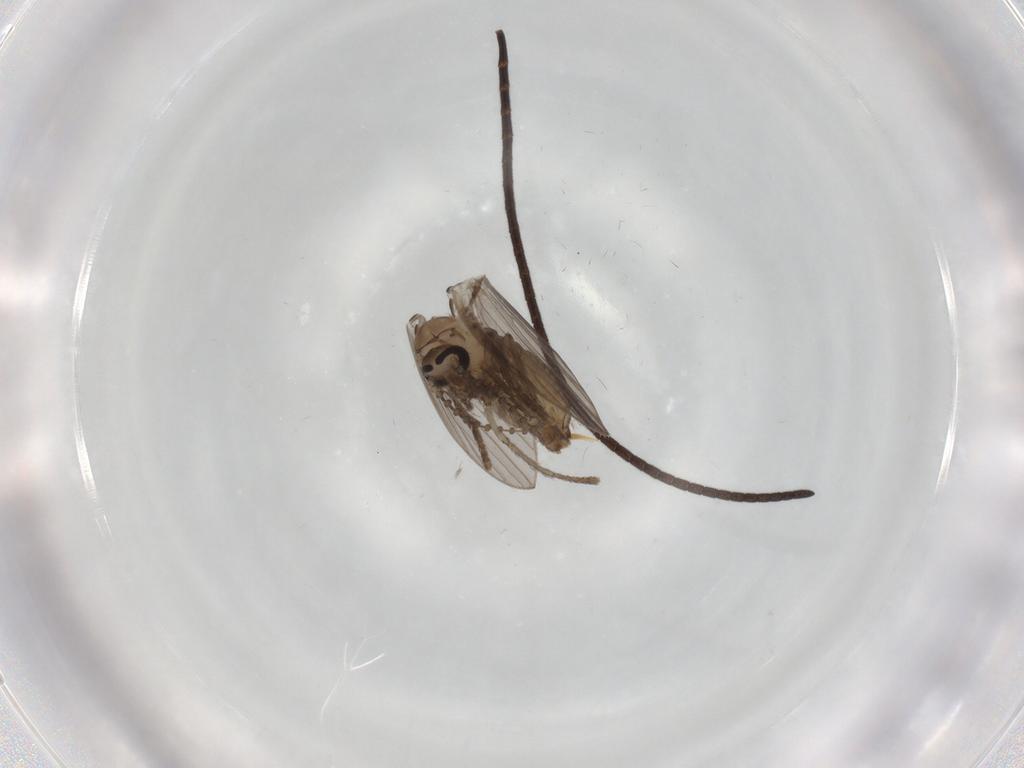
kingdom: Animalia
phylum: Arthropoda
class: Insecta
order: Diptera
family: Psychodidae
